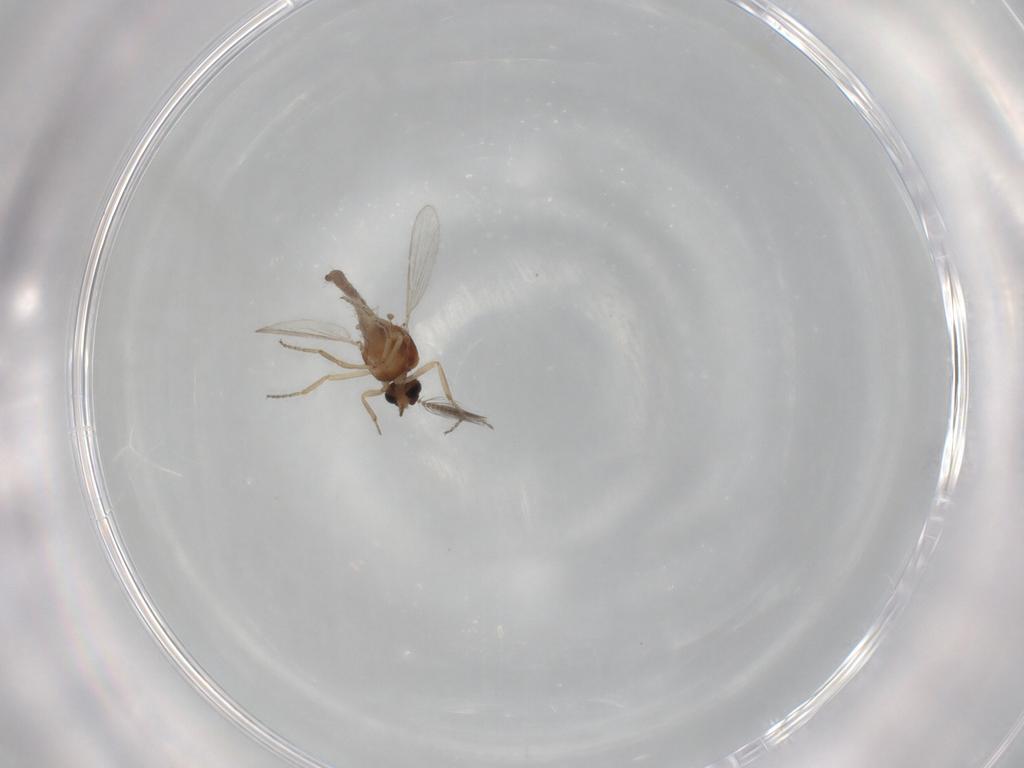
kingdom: Animalia
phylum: Arthropoda
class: Insecta
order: Diptera
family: Ceratopogonidae
